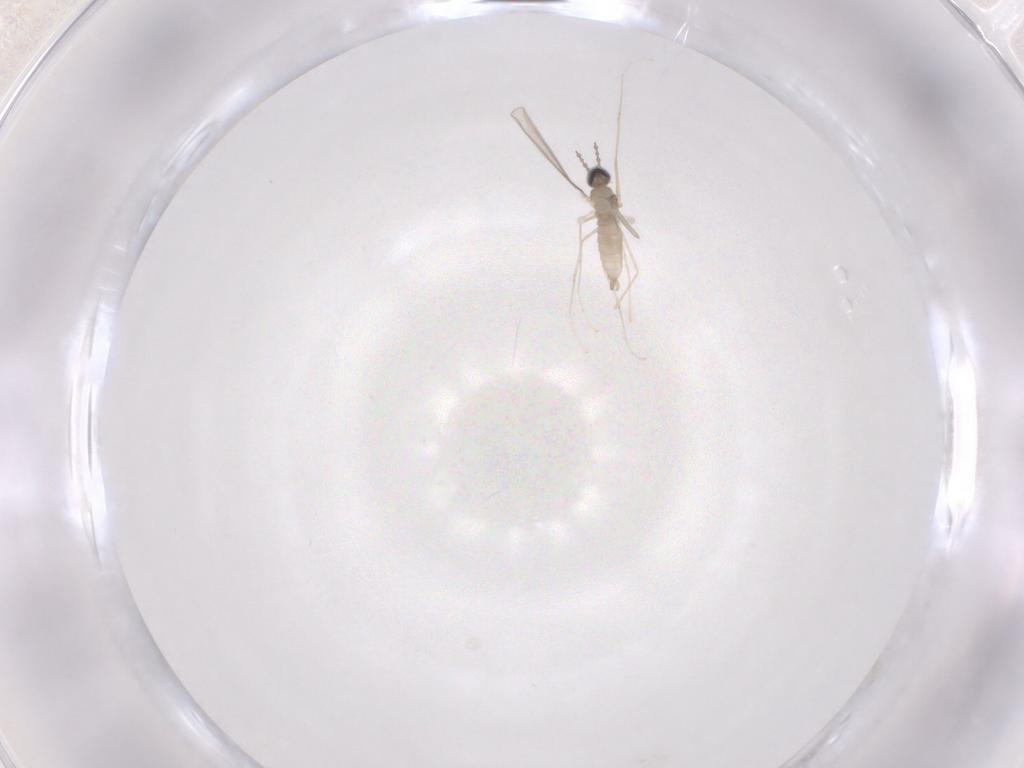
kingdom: Animalia
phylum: Arthropoda
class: Insecta
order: Diptera
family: Cecidomyiidae
